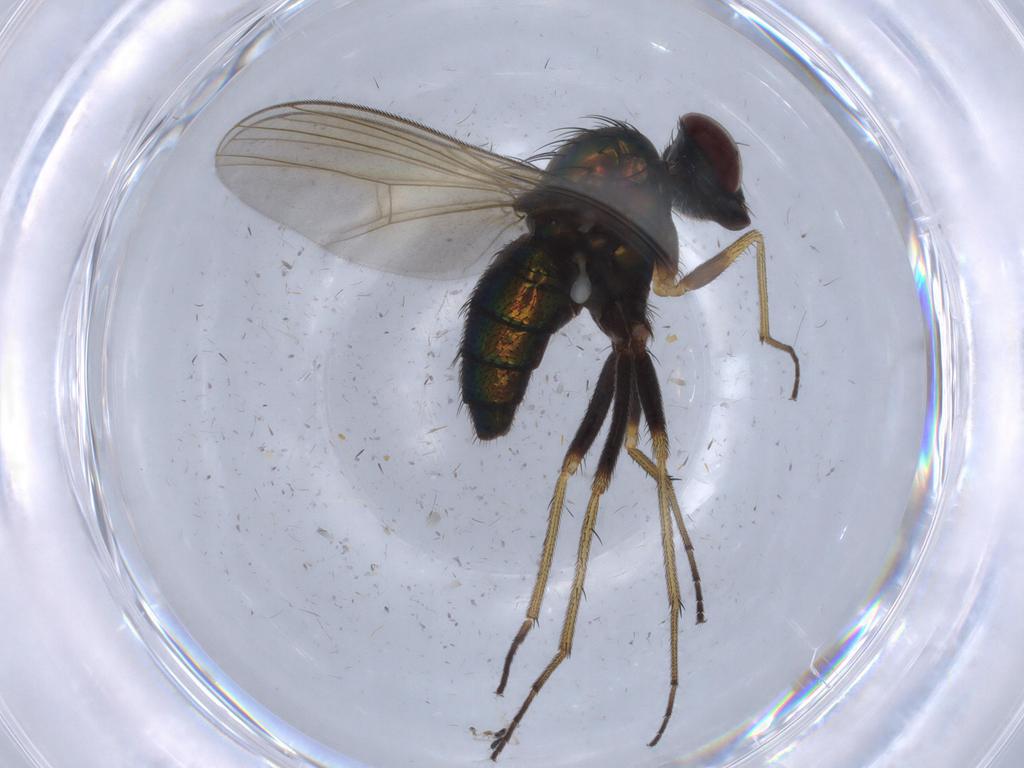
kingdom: Animalia
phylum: Arthropoda
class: Insecta
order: Diptera
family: Dolichopodidae
